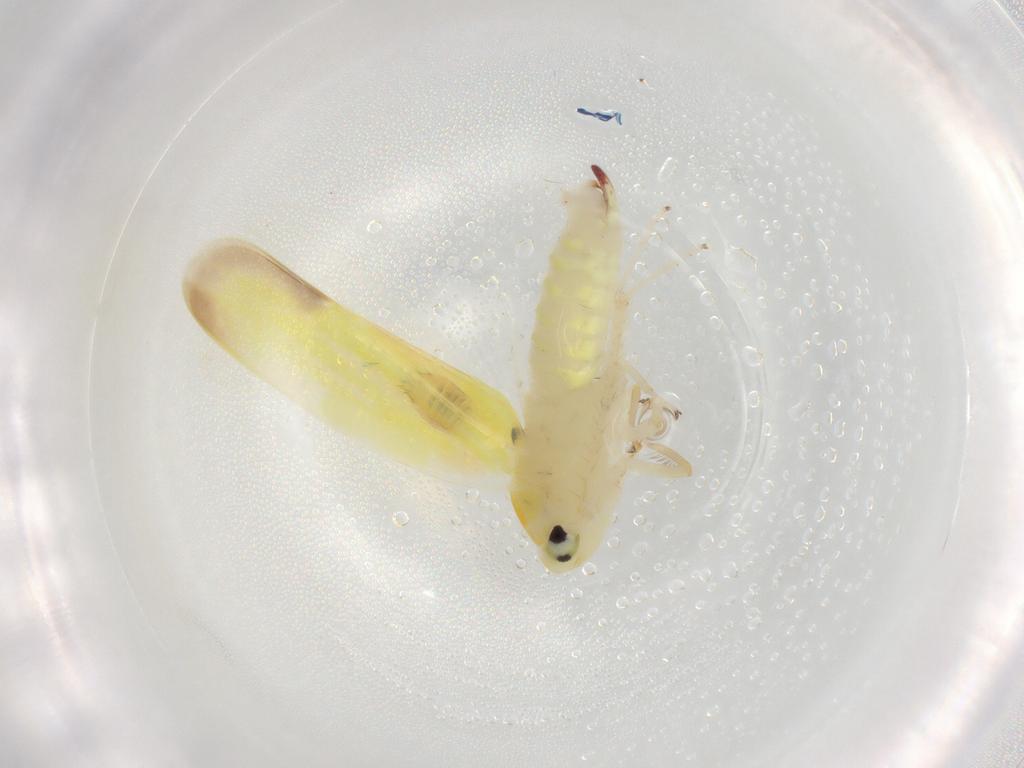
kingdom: Animalia
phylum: Arthropoda
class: Insecta
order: Hemiptera
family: Cicadellidae
